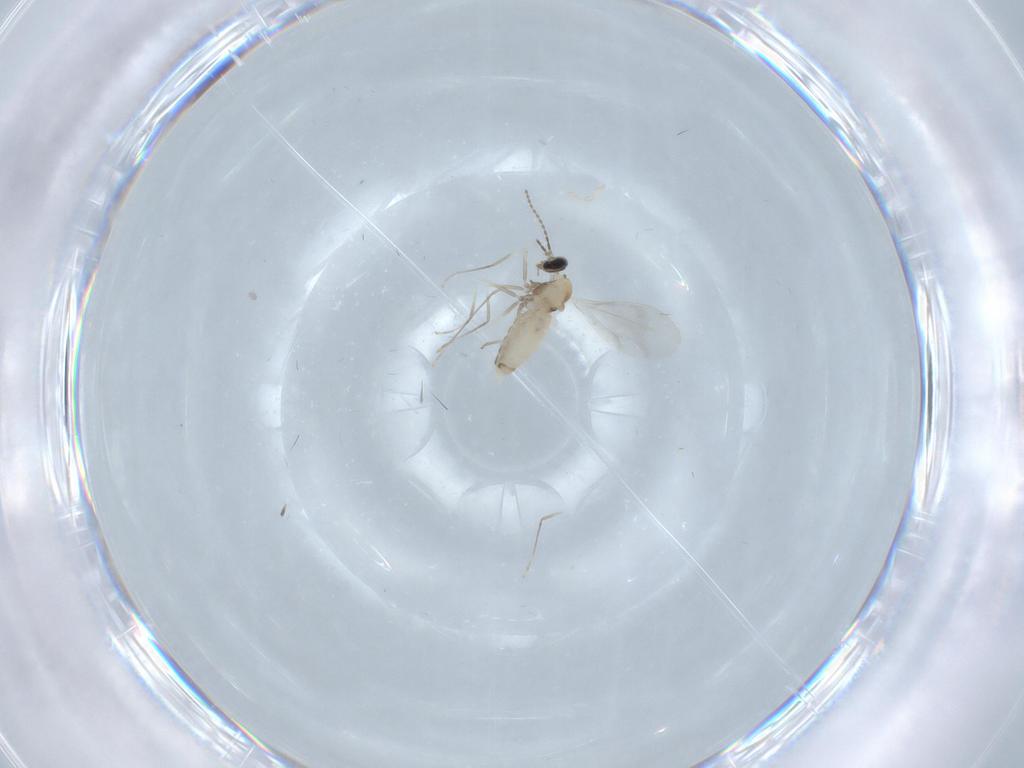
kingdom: Animalia
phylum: Arthropoda
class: Insecta
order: Diptera
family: Cecidomyiidae
